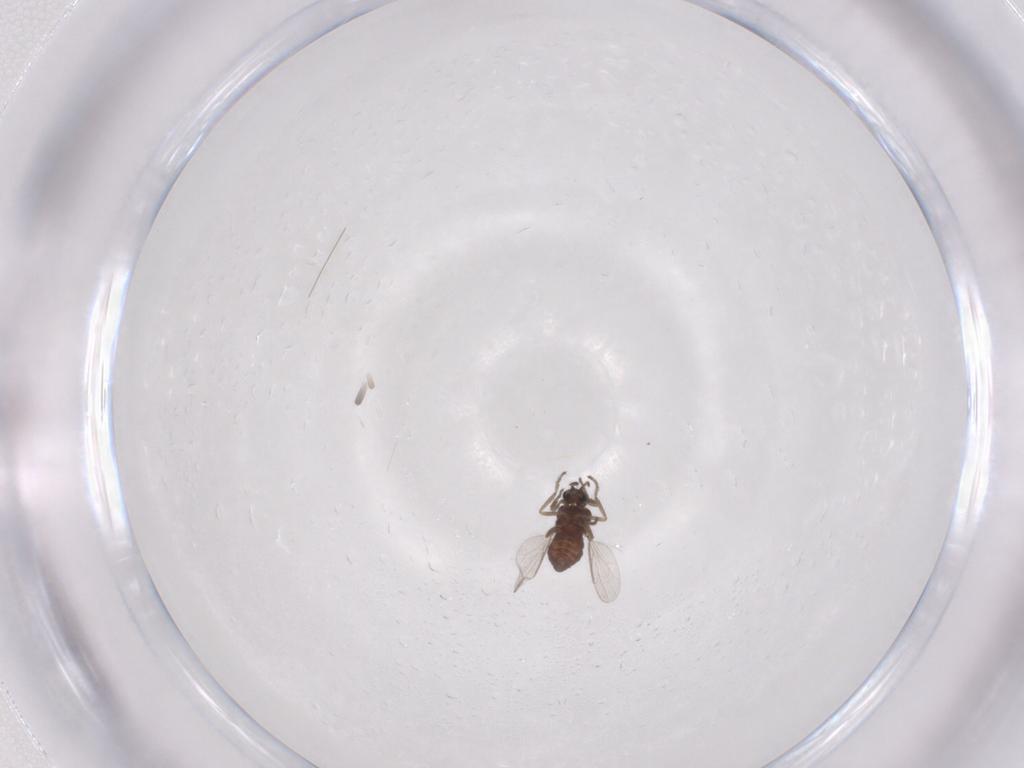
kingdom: Animalia
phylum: Arthropoda
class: Insecta
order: Diptera
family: Ceratopogonidae
